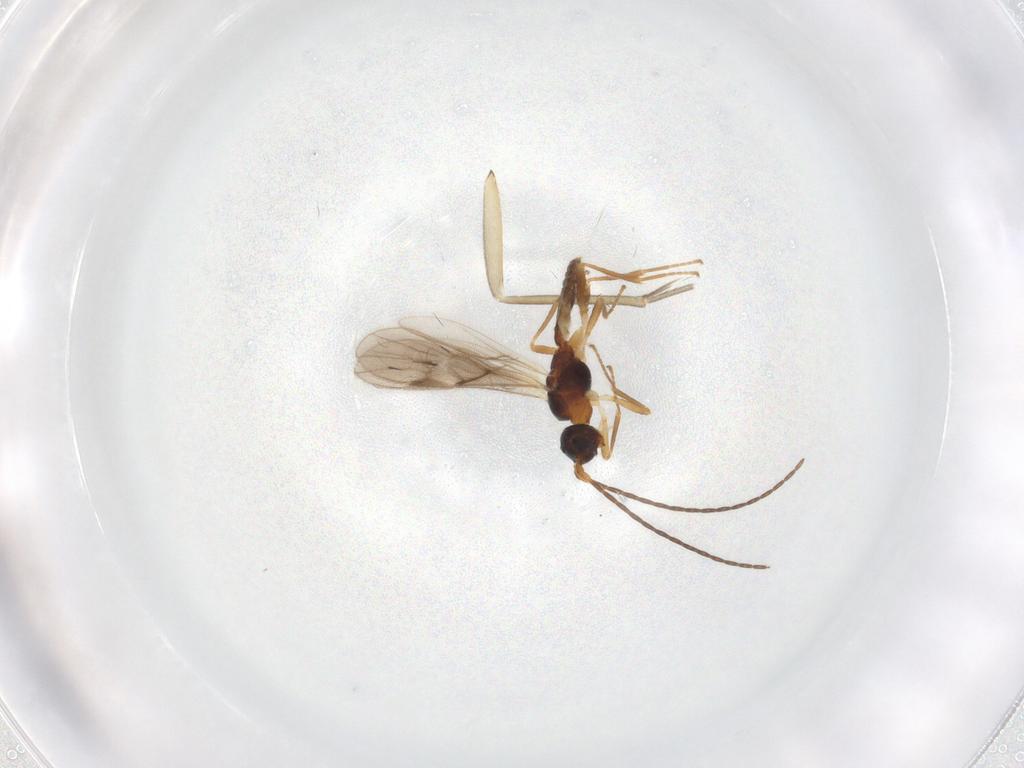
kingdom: Animalia
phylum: Arthropoda
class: Insecta
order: Hymenoptera
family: Braconidae
